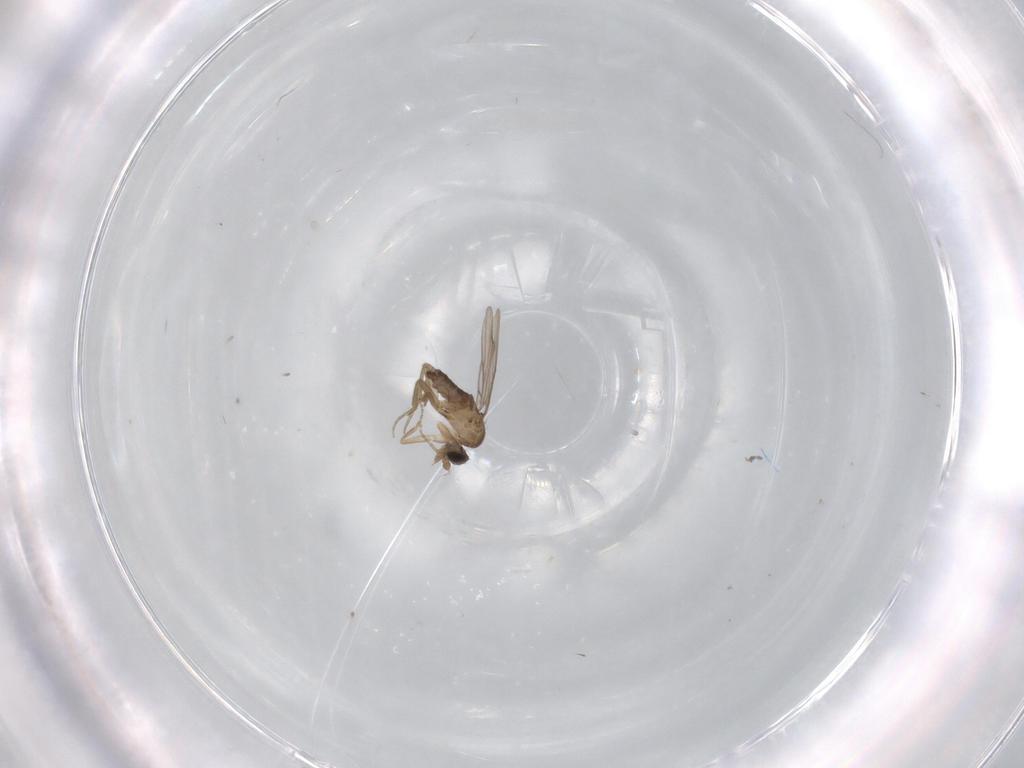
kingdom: Animalia
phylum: Arthropoda
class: Insecta
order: Diptera
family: Phoridae
